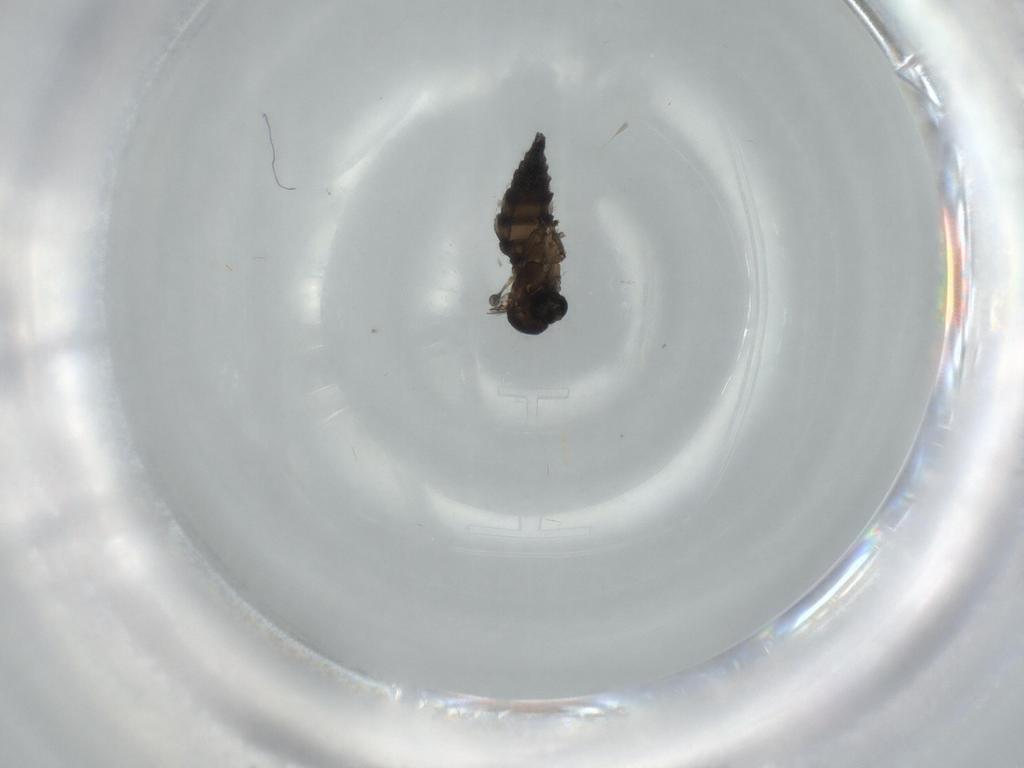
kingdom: Animalia
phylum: Arthropoda
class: Insecta
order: Diptera
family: Sciaridae
